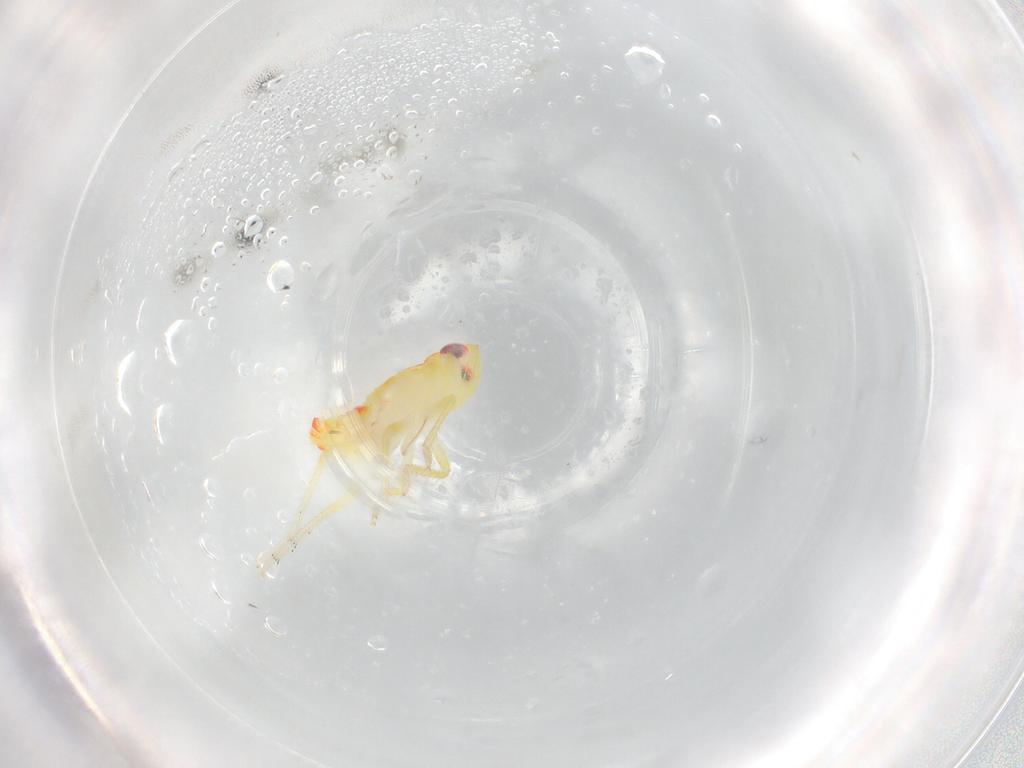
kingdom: Animalia
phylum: Arthropoda
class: Insecta
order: Hemiptera
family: Tropiduchidae
